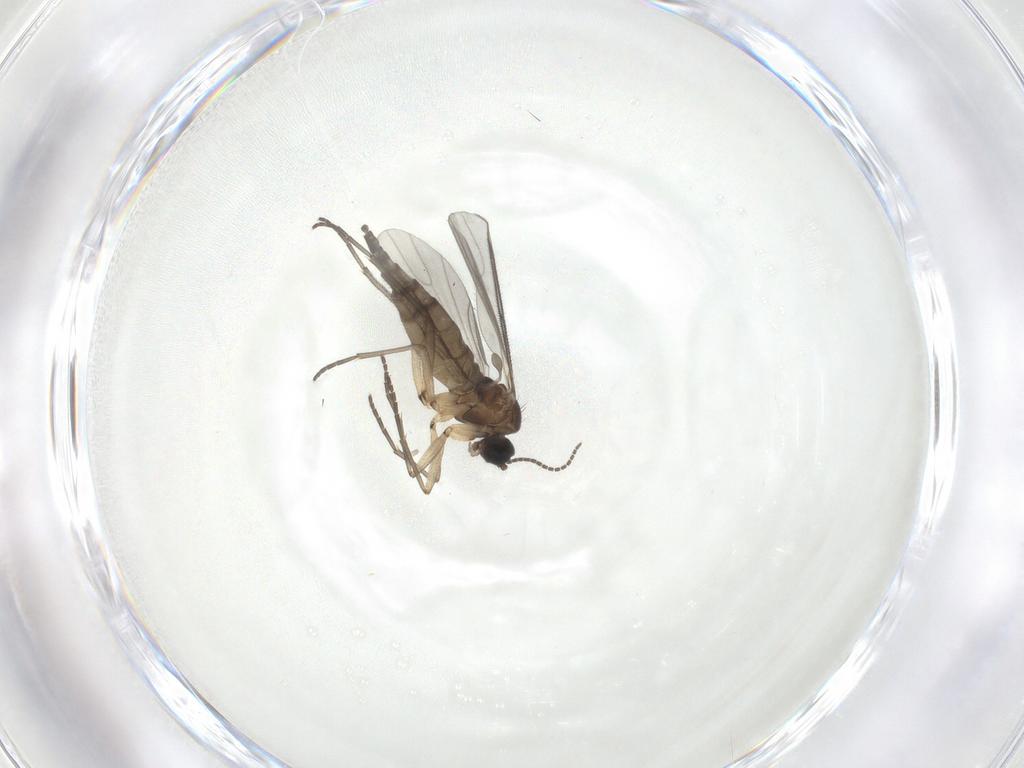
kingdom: Animalia
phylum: Arthropoda
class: Insecta
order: Diptera
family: Sciaridae
